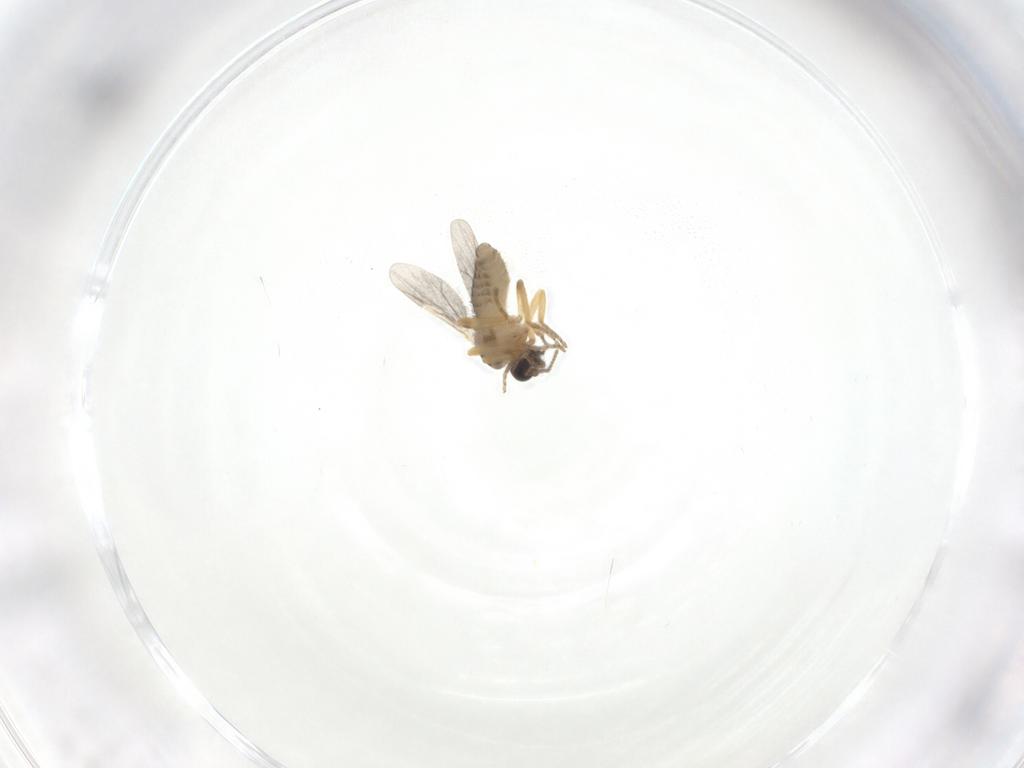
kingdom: Animalia
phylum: Arthropoda
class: Insecta
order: Diptera
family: Ceratopogonidae
